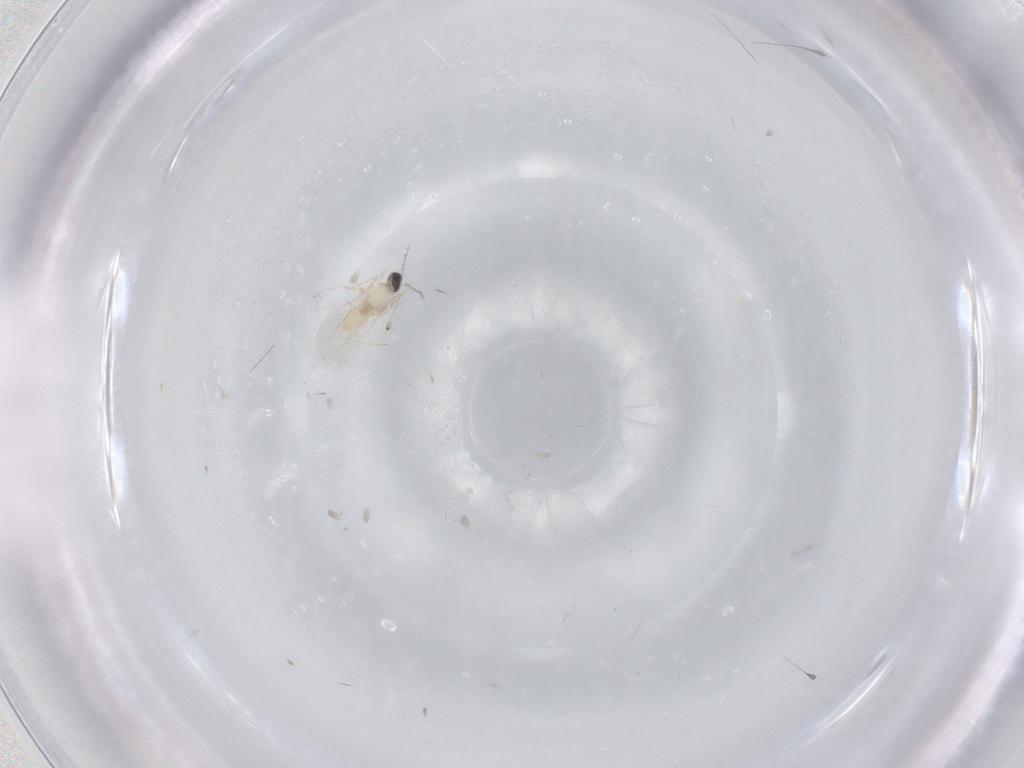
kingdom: Animalia
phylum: Arthropoda
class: Insecta
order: Diptera
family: Cecidomyiidae
